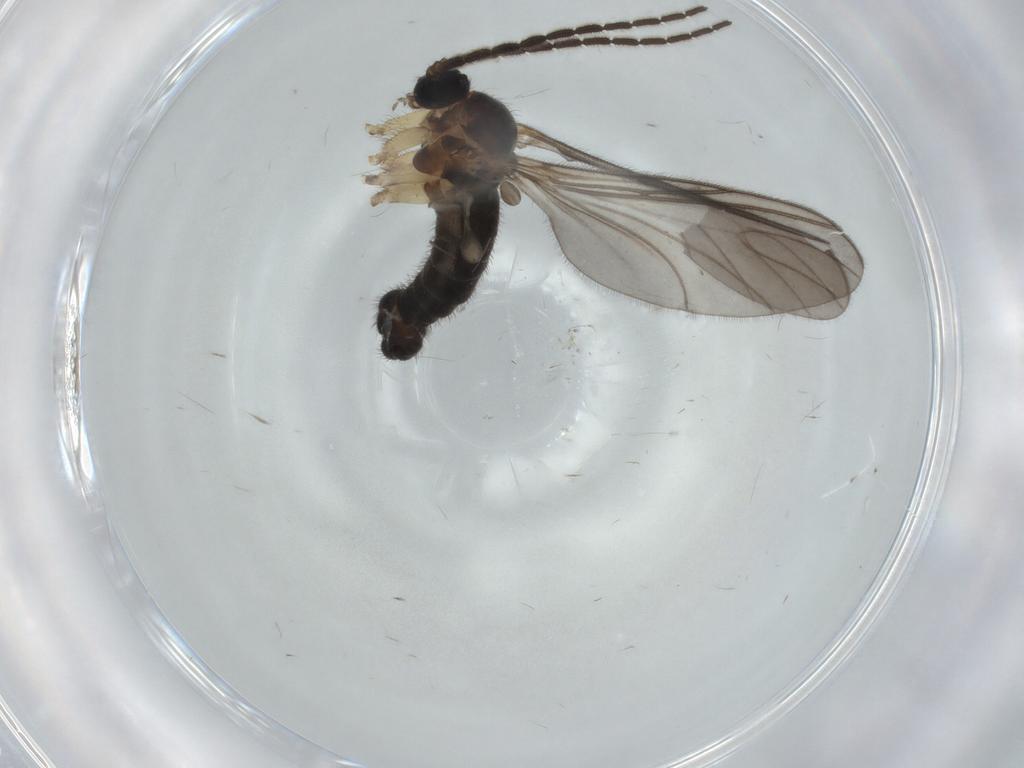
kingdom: Animalia
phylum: Arthropoda
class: Insecta
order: Diptera
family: Sciaridae
